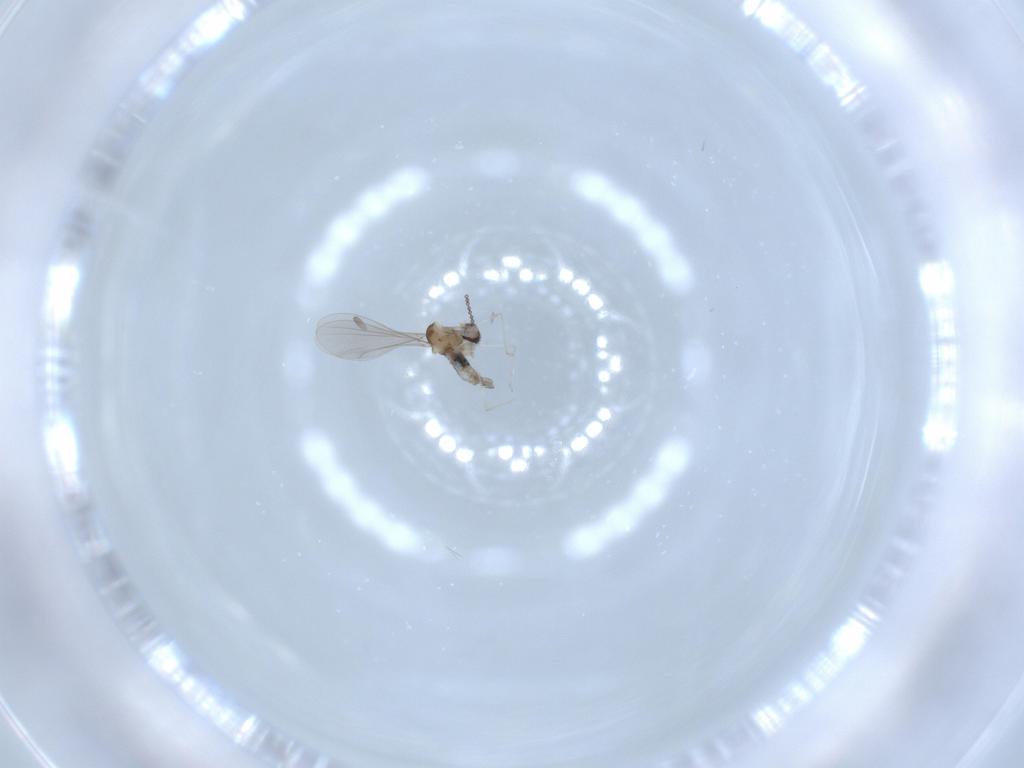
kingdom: Animalia
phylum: Arthropoda
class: Insecta
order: Diptera
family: Cecidomyiidae
